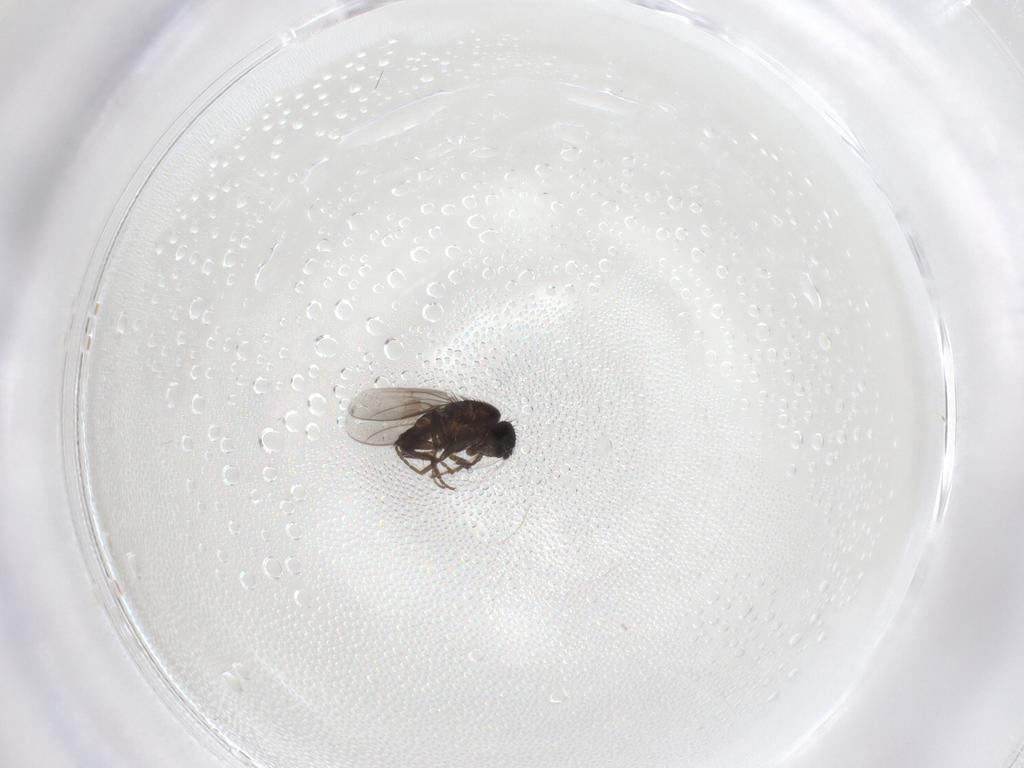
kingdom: Animalia
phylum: Arthropoda
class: Insecta
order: Diptera
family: Sphaeroceridae
